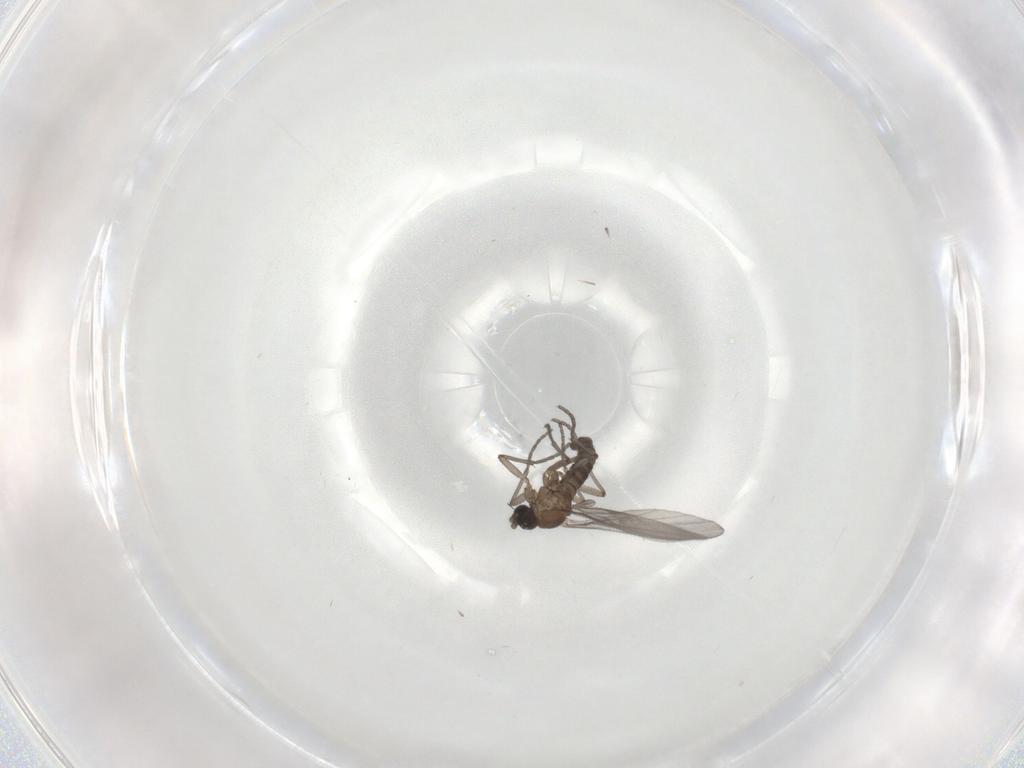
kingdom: Animalia
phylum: Arthropoda
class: Insecta
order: Diptera
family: Sciaridae
